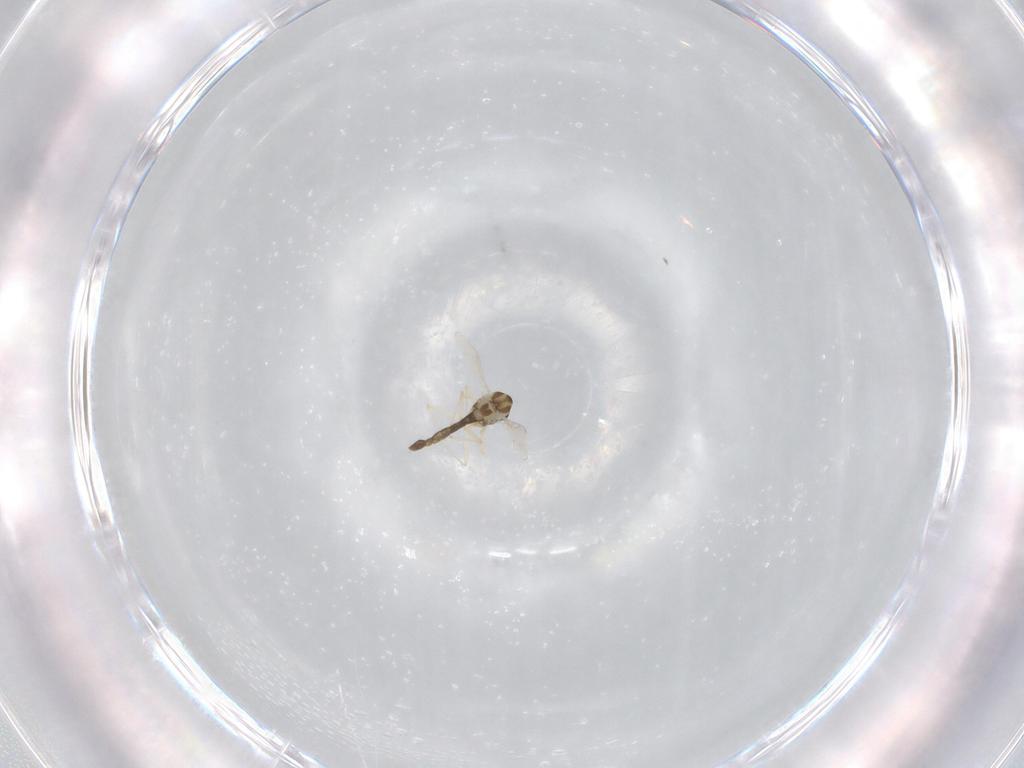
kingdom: Animalia
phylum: Arthropoda
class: Insecta
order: Diptera
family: Chironomidae
